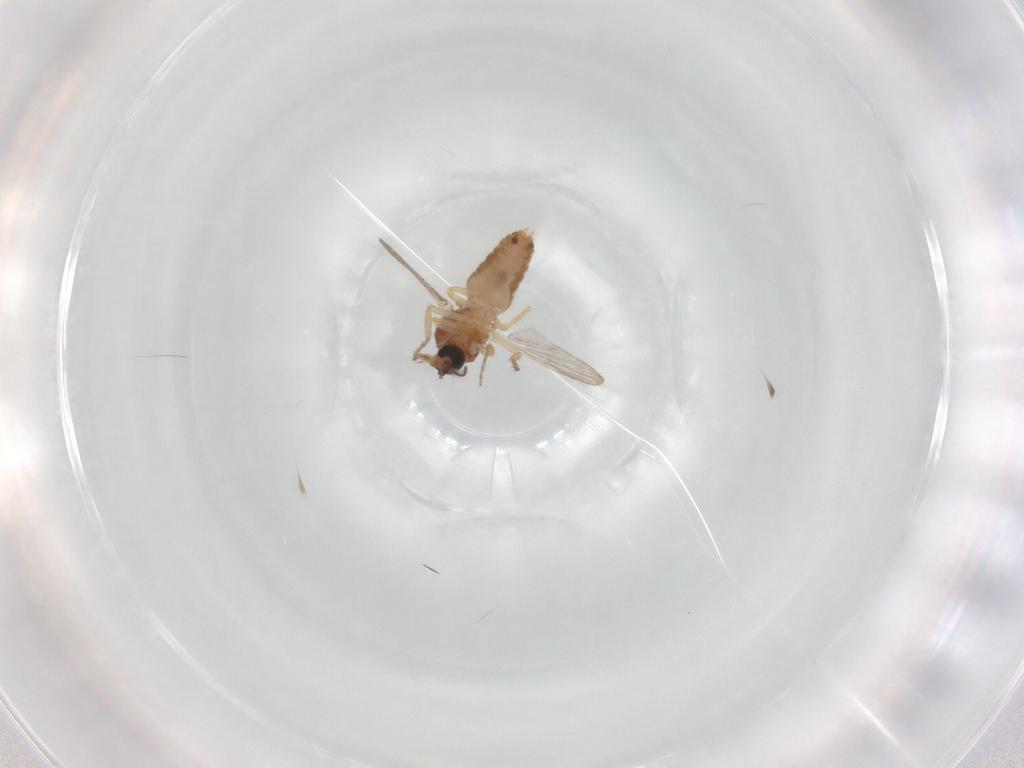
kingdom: Animalia
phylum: Arthropoda
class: Insecta
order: Diptera
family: Ceratopogonidae
